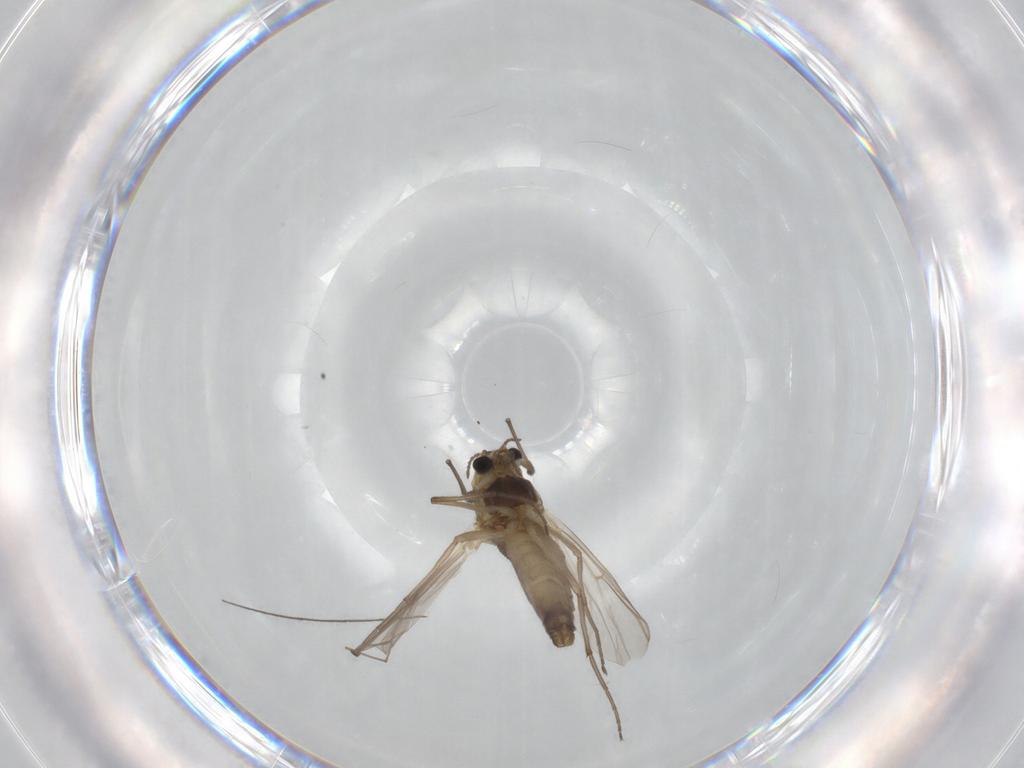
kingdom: Animalia
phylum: Arthropoda
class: Insecta
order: Diptera
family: Chironomidae
